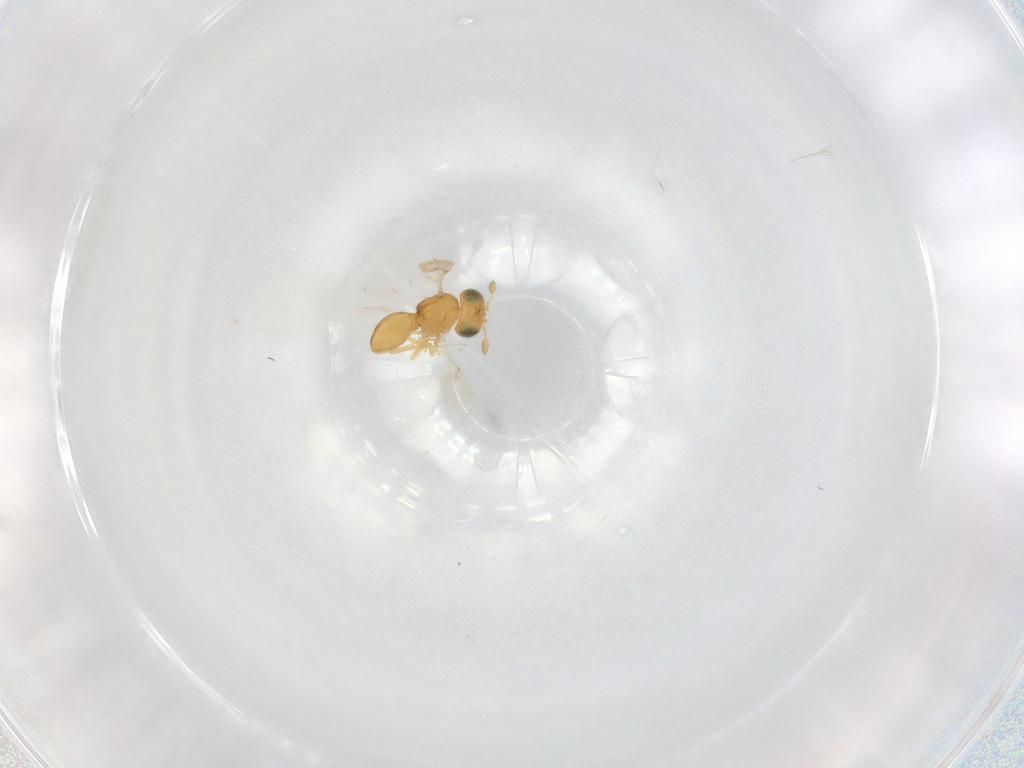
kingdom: Animalia
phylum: Arthropoda
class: Insecta
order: Hymenoptera
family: Scelionidae
